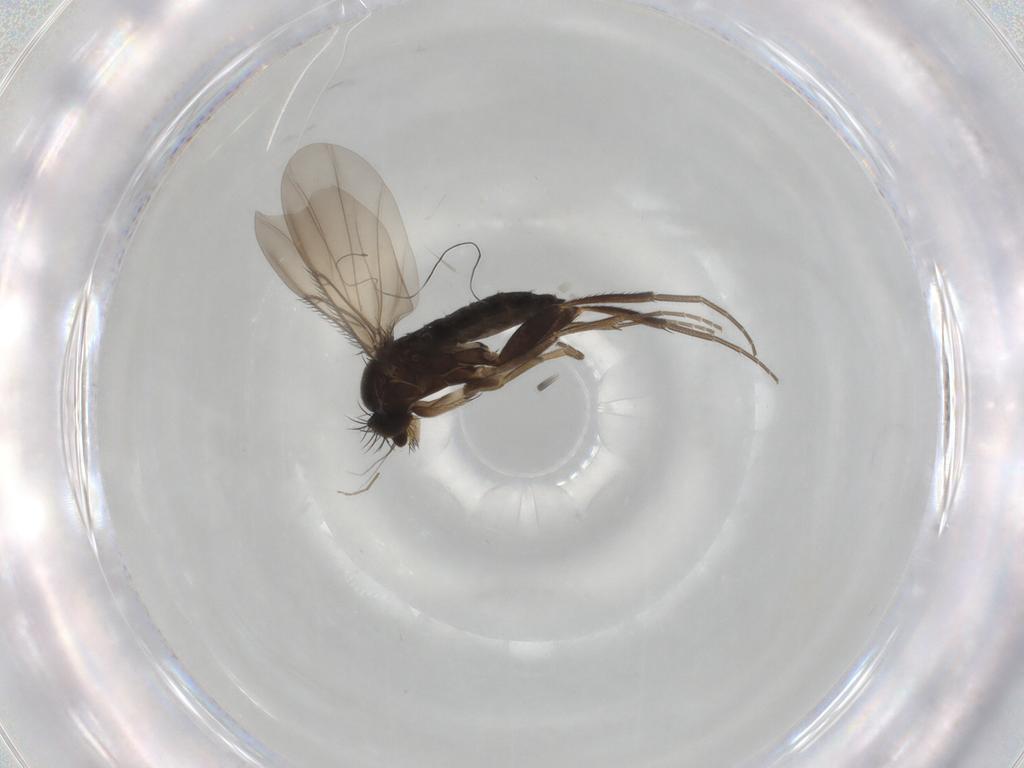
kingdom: Animalia
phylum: Arthropoda
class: Insecta
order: Diptera
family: Phoridae
